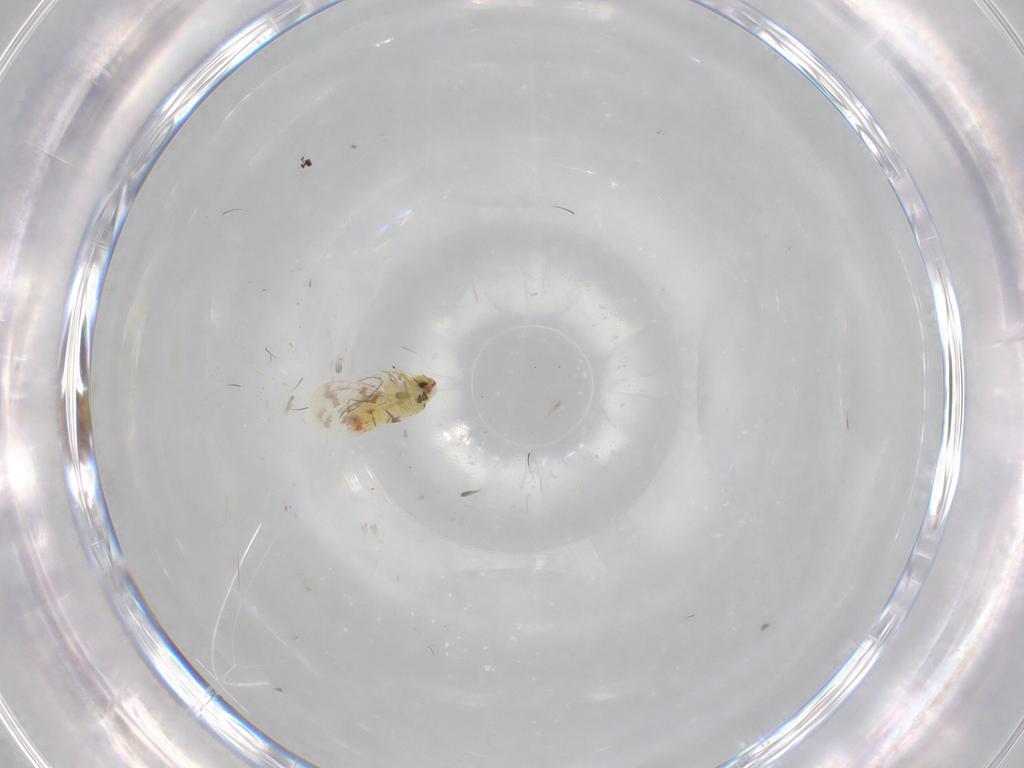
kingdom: Animalia
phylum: Arthropoda
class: Insecta
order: Hemiptera
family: Aleyrodidae
